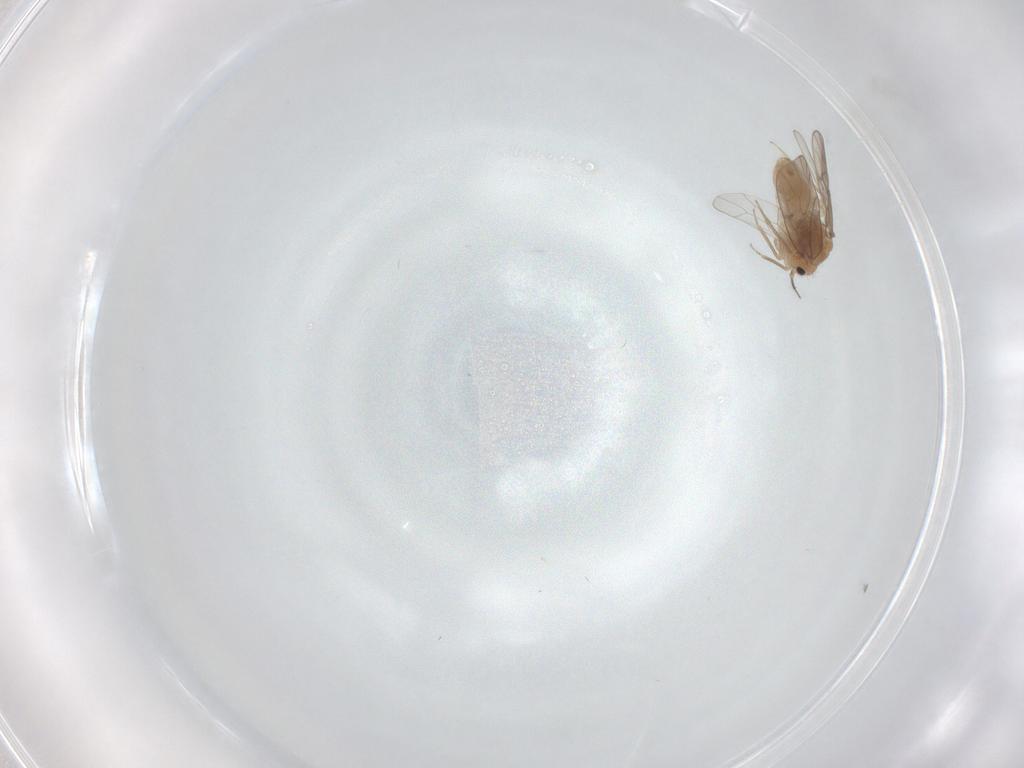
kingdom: Animalia
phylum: Arthropoda
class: Insecta
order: Psocodea
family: Ectopsocidae
